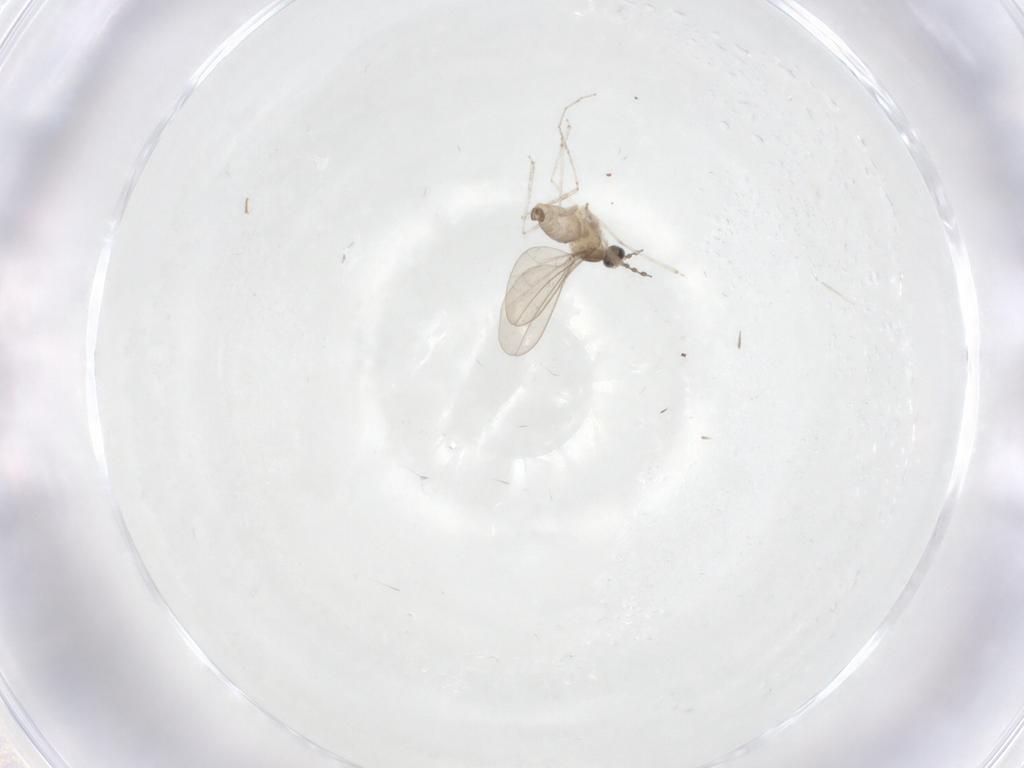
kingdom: Animalia
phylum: Arthropoda
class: Insecta
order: Diptera
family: Cecidomyiidae
